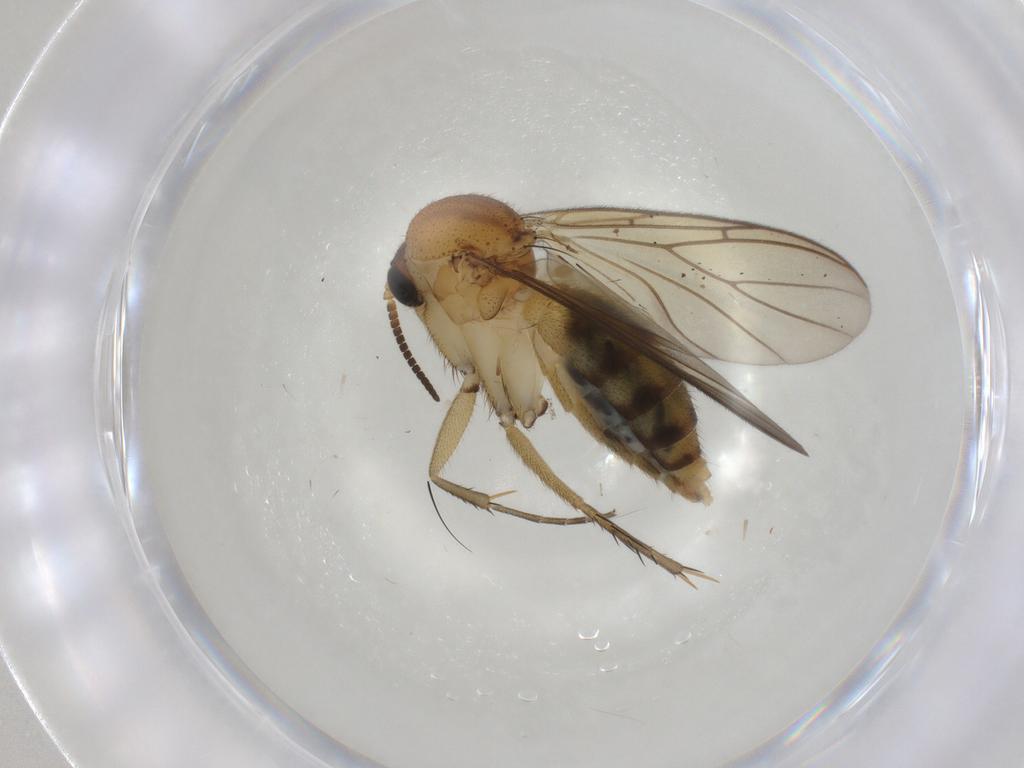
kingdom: Animalia
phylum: Arthropoda
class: Insecta
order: Diptera
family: Mycetophilidae
